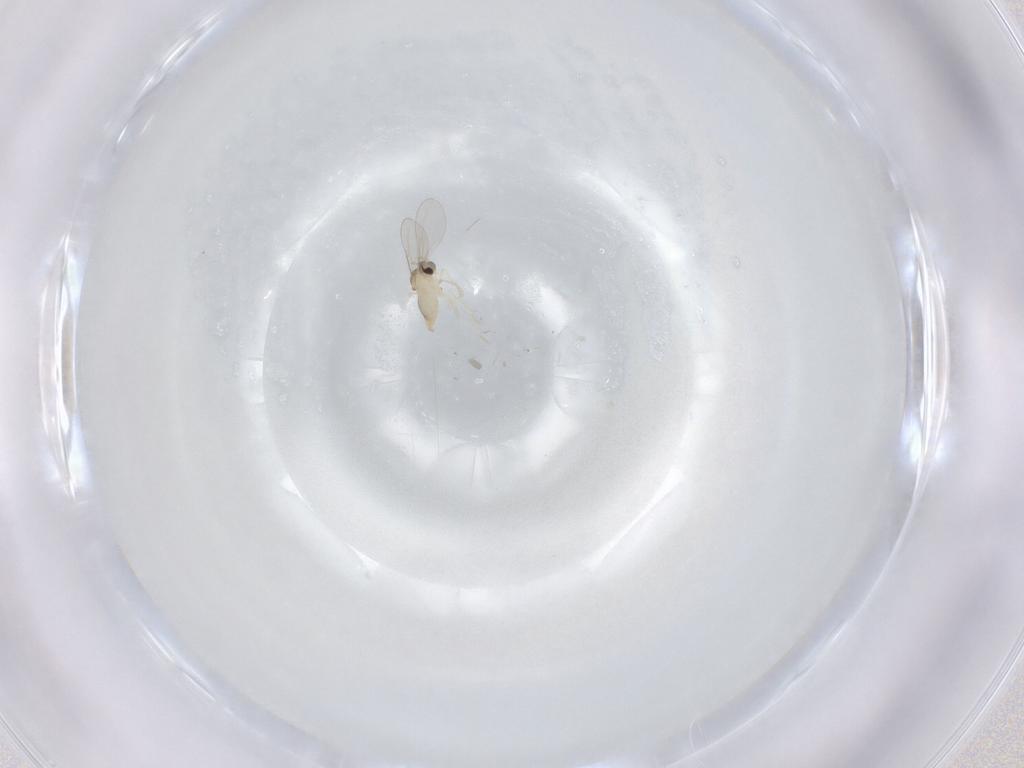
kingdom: Animalia
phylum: Arthropoda
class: Insecta
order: Diptera
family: Cecidomyiidae
